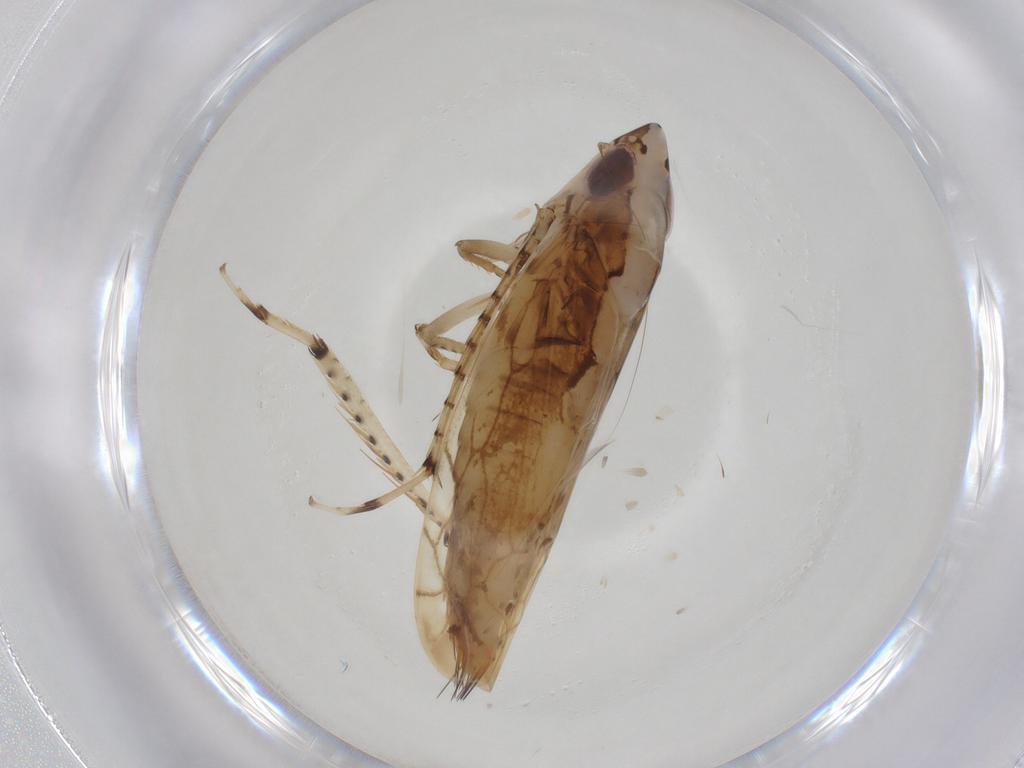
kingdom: Animalia
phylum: Arthropoda
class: Insecta
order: Hemiptera
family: Cicadellidae
